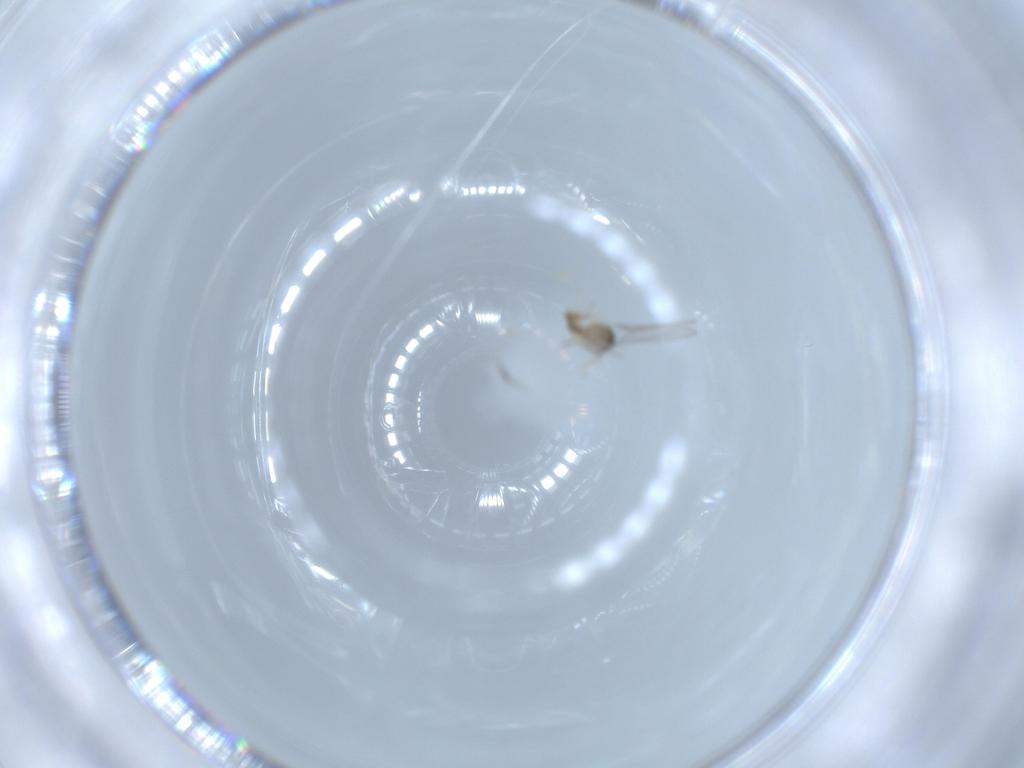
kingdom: Animalia
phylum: Arthropoda
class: Insecta
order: Diptera
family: Cecidomyiidae
